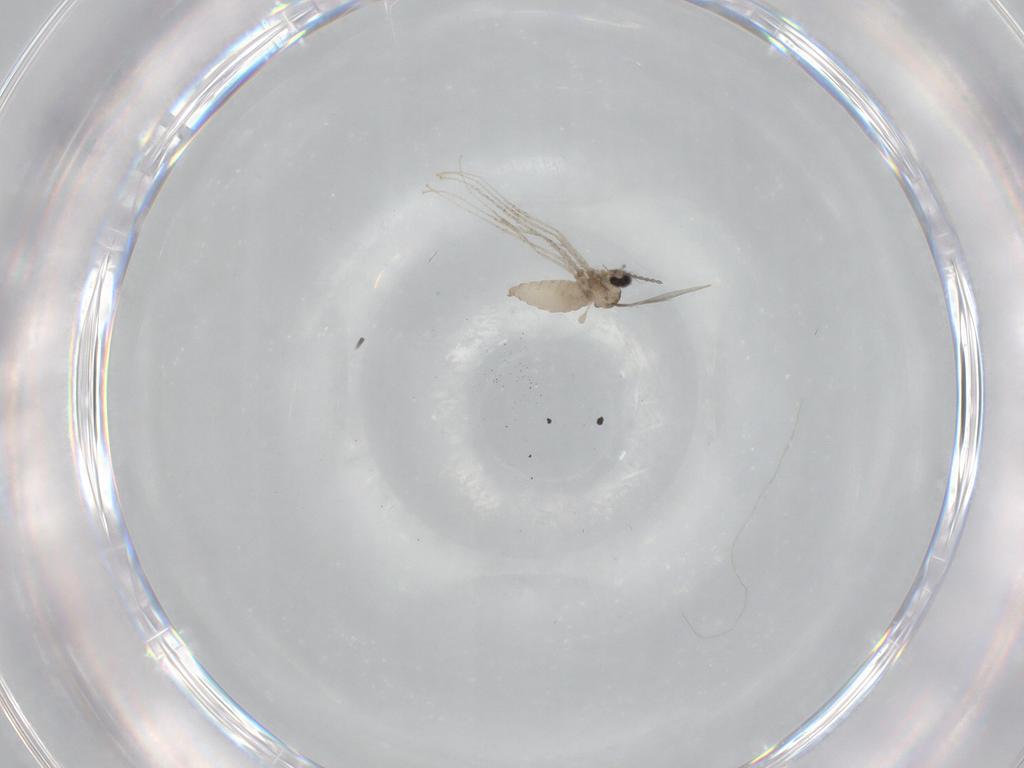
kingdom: Animalia
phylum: Arthropoda
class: Insecta
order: Diptera
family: Cecidomyiidae
